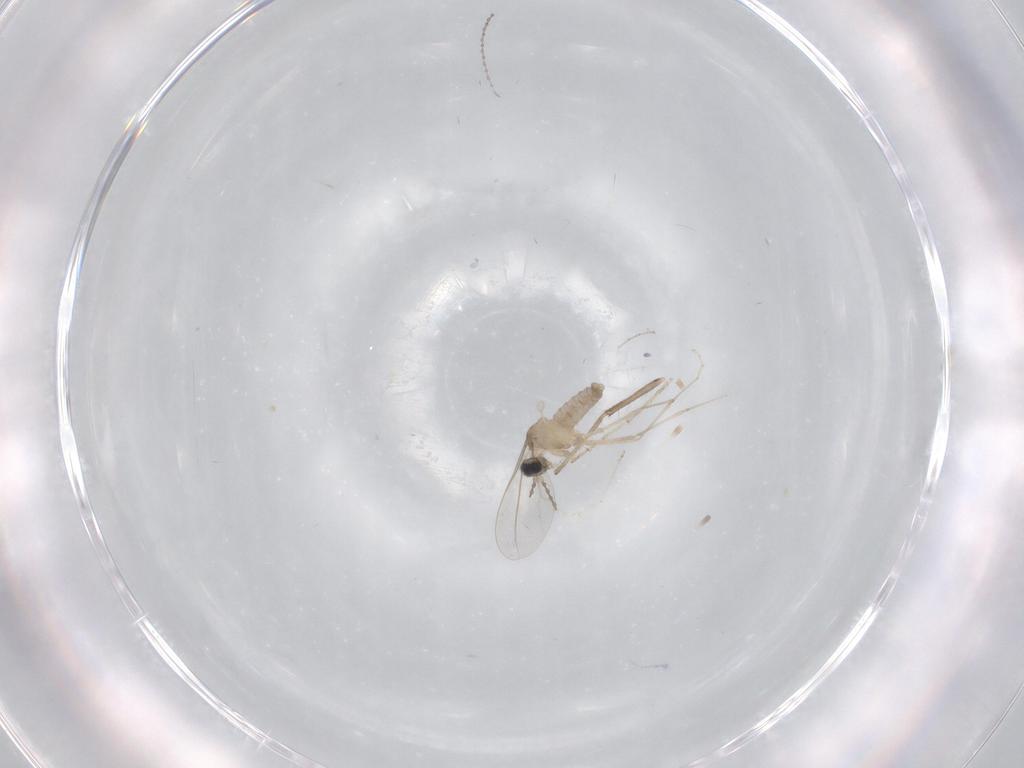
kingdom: Animalia
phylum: Arthropoda
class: Insecta
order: Diptera
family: Cecidomyiidae
